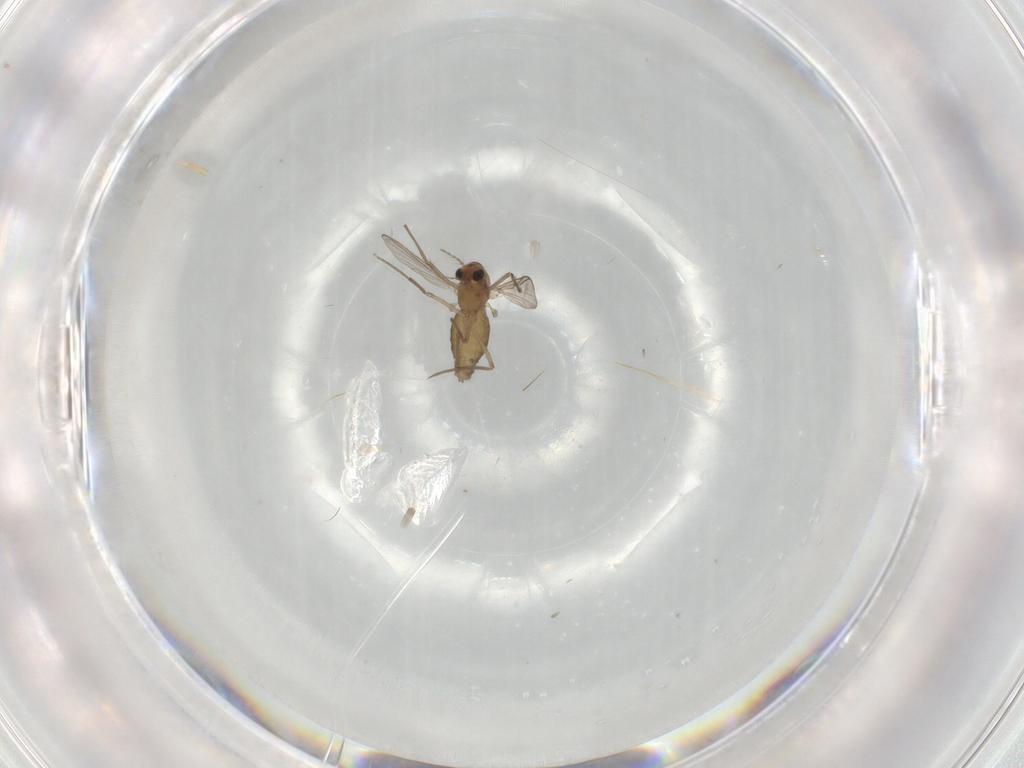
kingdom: Animalia
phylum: Arthropoda
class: Insecta
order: Diptera
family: Chironomidae
